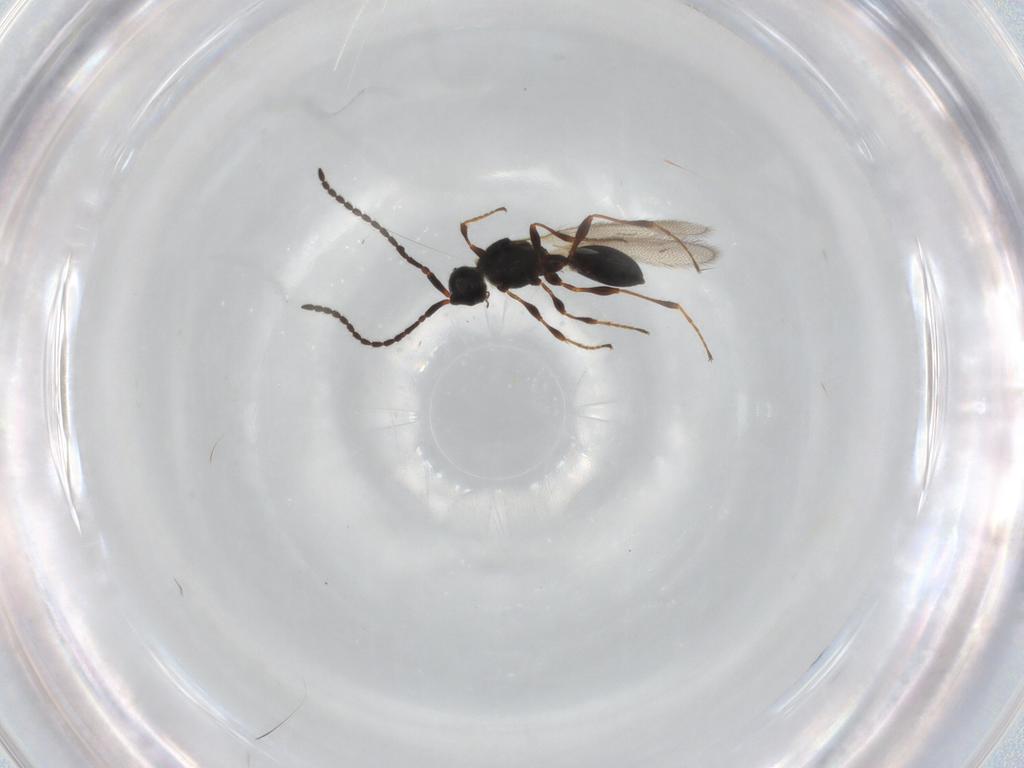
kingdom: Animalia
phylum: Arthropoda
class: Insecta
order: Hymenoptera
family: Diapriidae
